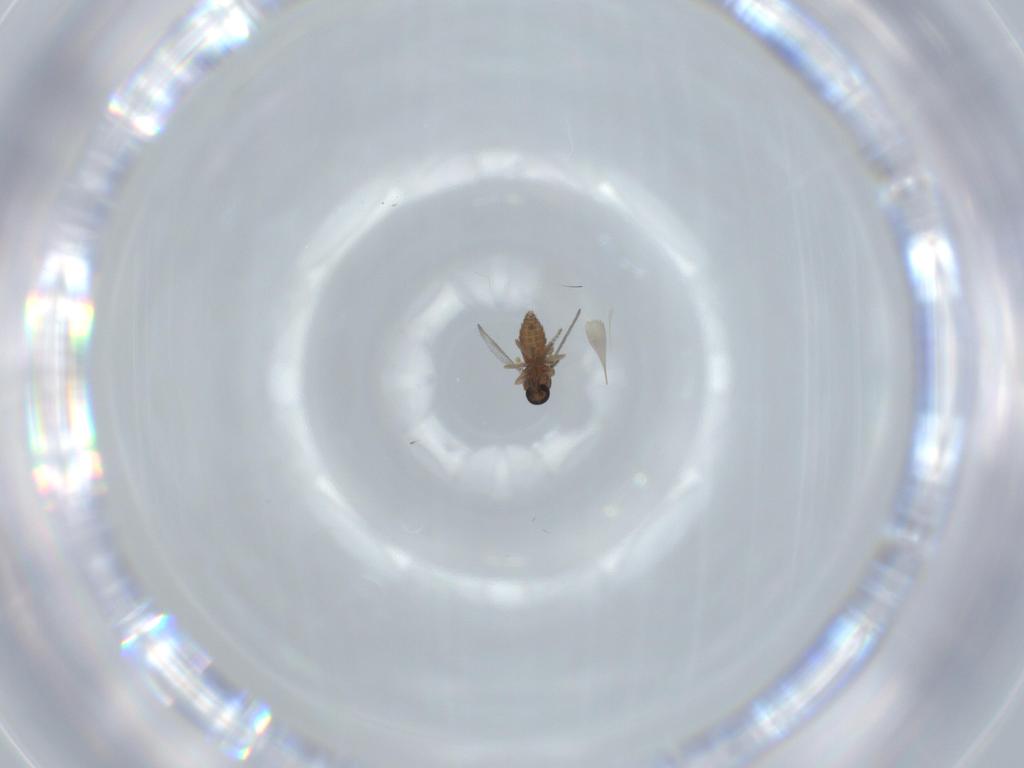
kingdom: Animalia
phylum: Arthropoda
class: Insecta
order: Diptera
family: Ceratopogonidae
